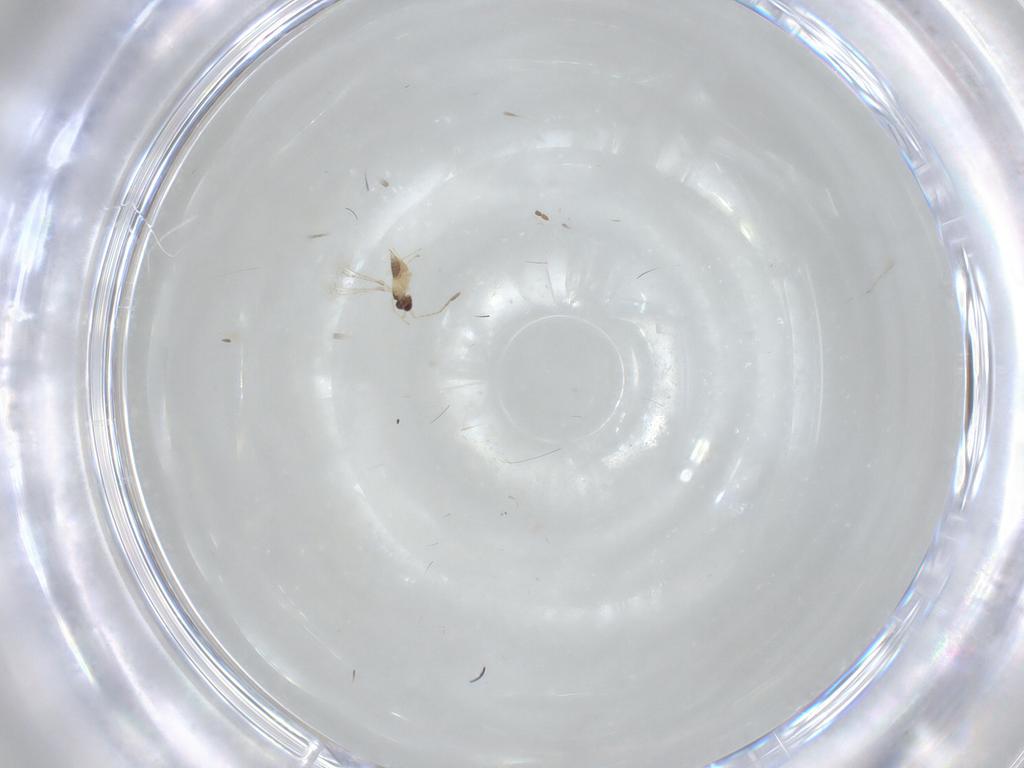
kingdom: Animalia
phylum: Arthropoda
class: Insecta
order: Hymenoptera
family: Braconidae
